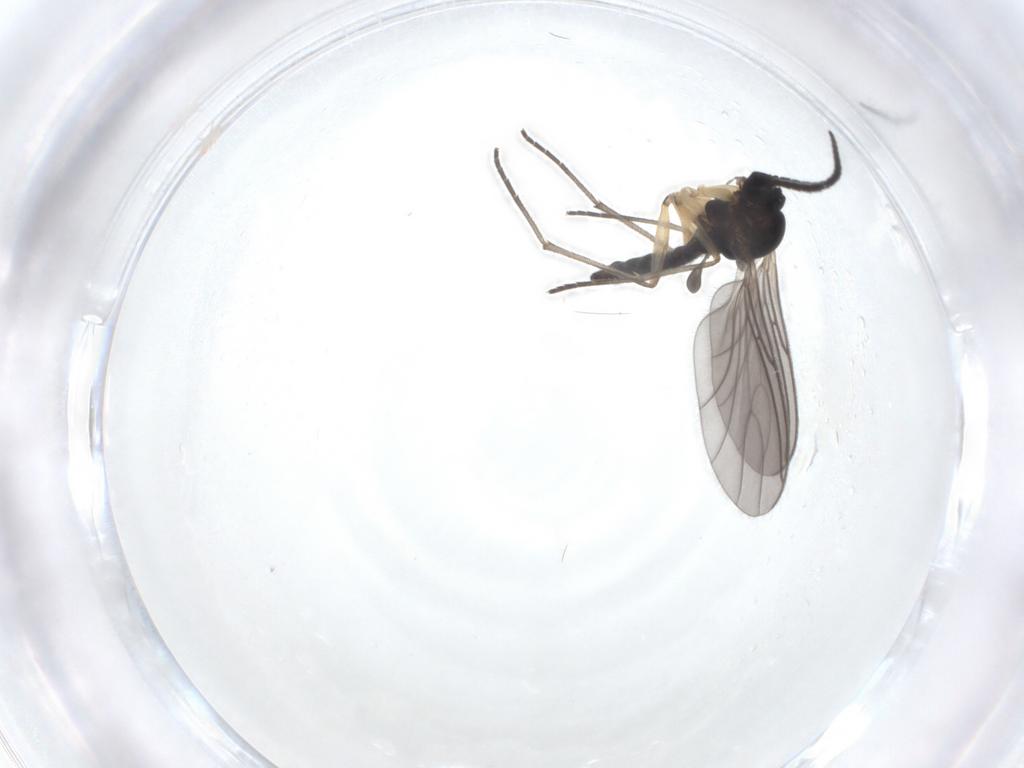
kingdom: Animalia
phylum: Arthropoda
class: Insecta
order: Diptera
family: Sciaridae
